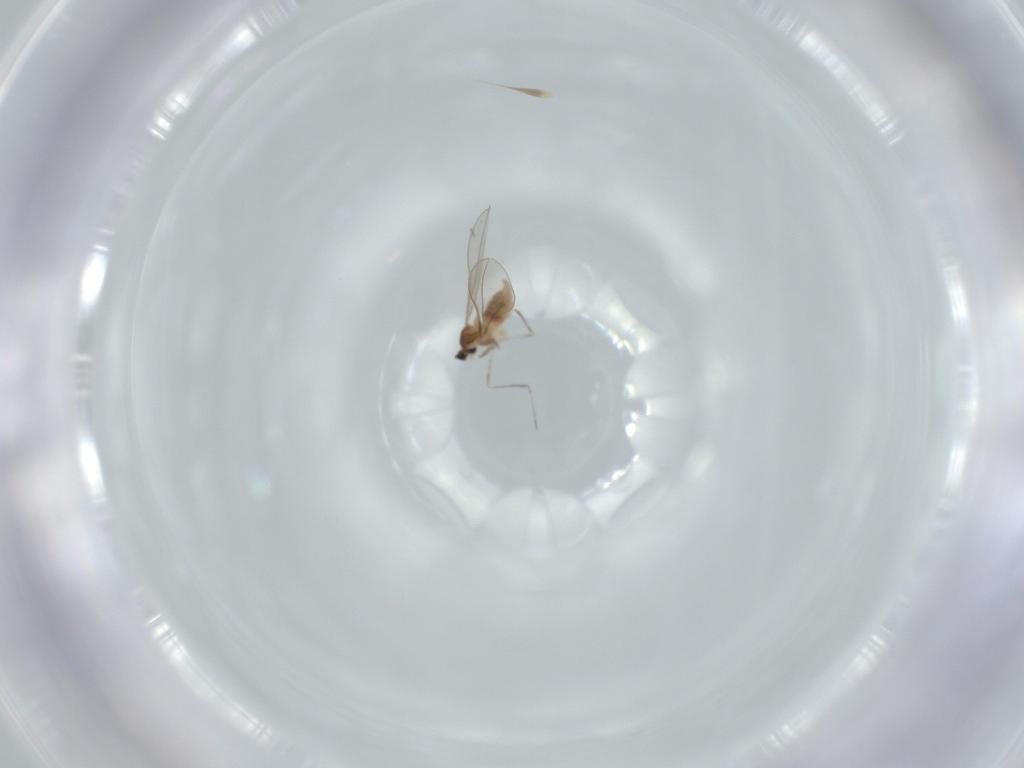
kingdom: Animalia
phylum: Arthropoda
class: Insecta
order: Diptera
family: Cecidomyiidae
